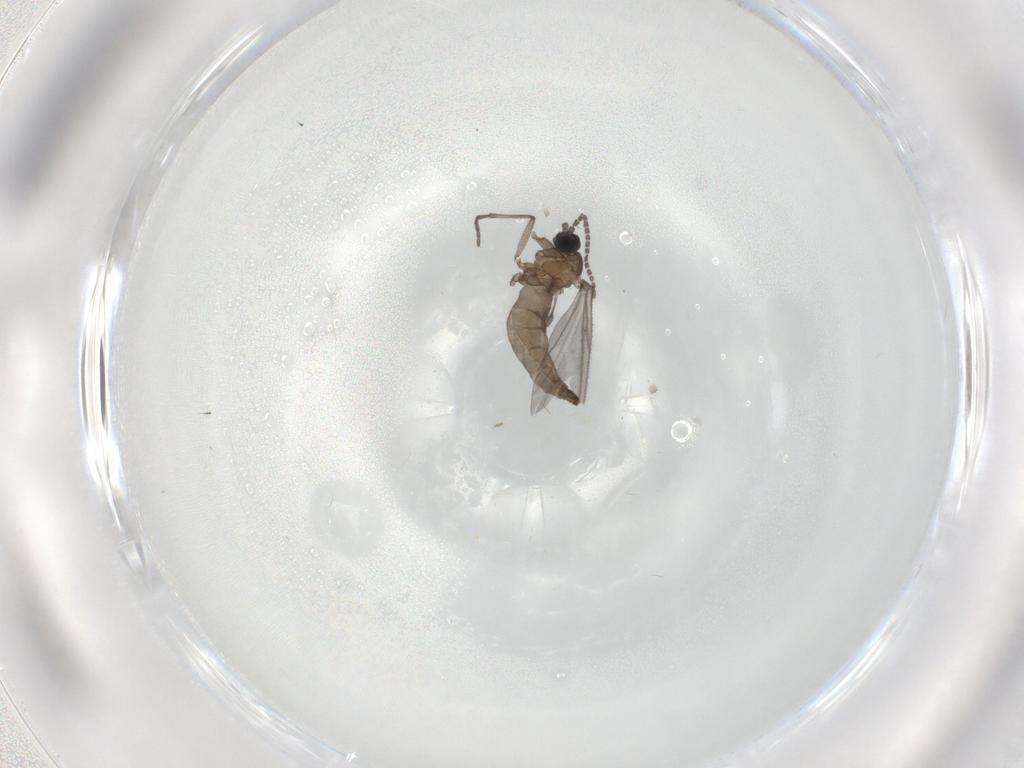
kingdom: Animalia
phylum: Arthropoda
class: Insecta
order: Diptera
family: Sciaridae
